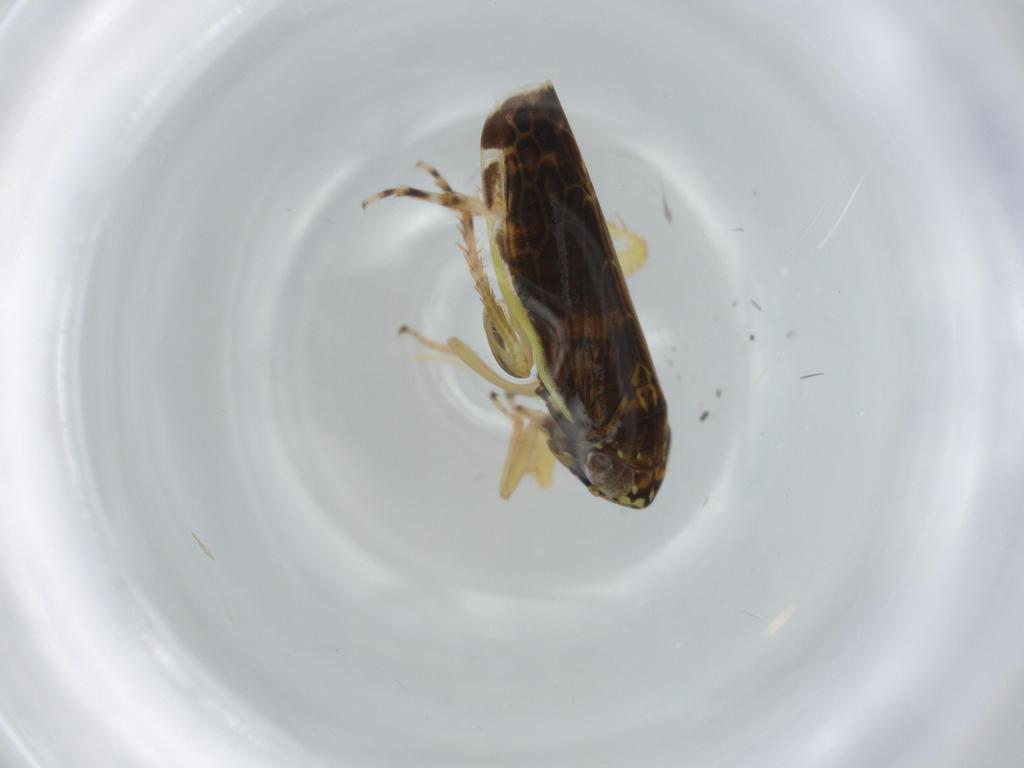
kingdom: Animalia
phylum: Arthropoda
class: Insecta
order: Hemiptera
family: Cicadellidae
